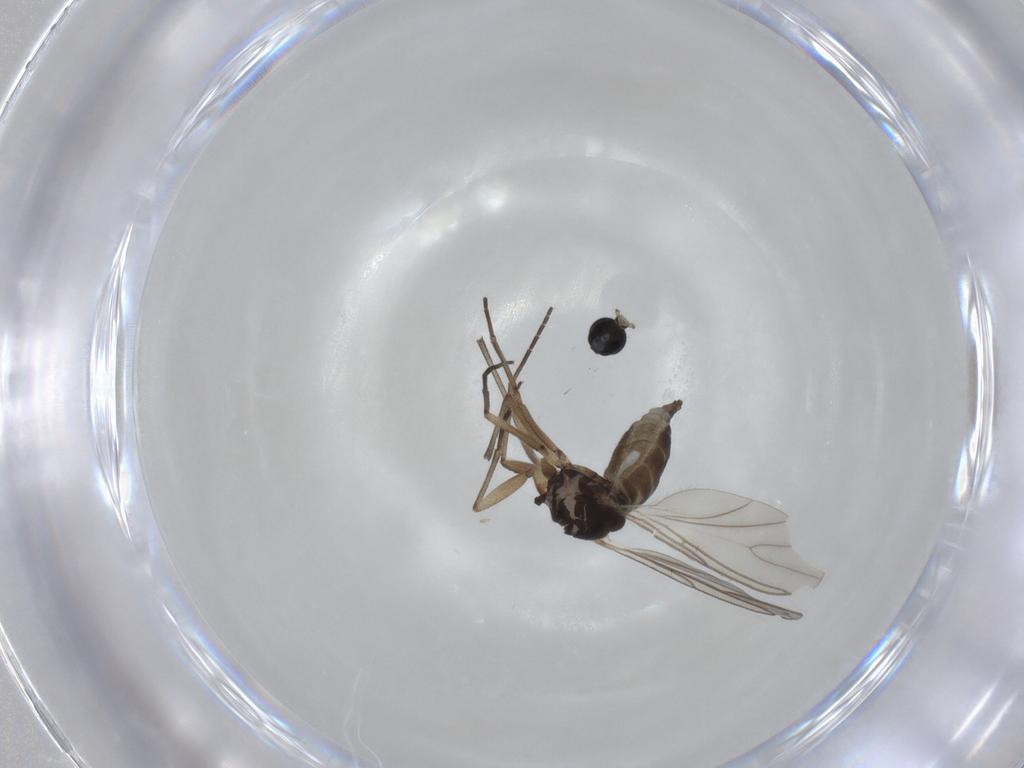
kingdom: Animalia
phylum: Arthropoda
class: Insecta
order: Diptera
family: Sciaridae
